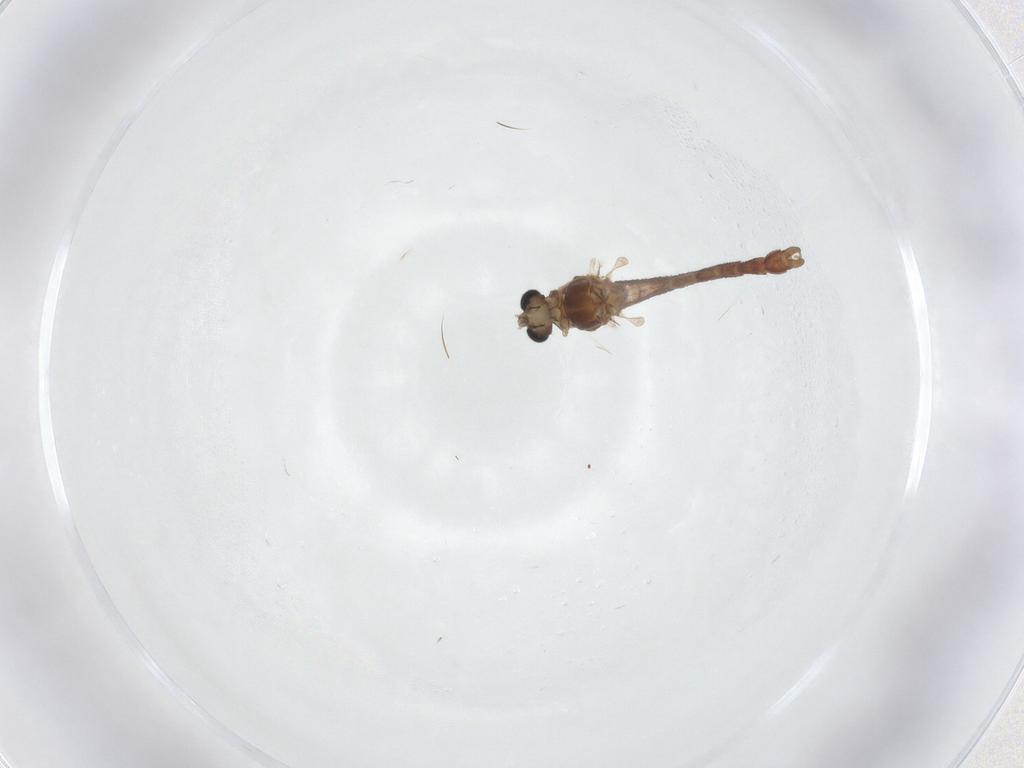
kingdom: Animalia
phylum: Arthropoda
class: Insecta
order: Diptera
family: Chironomidae
